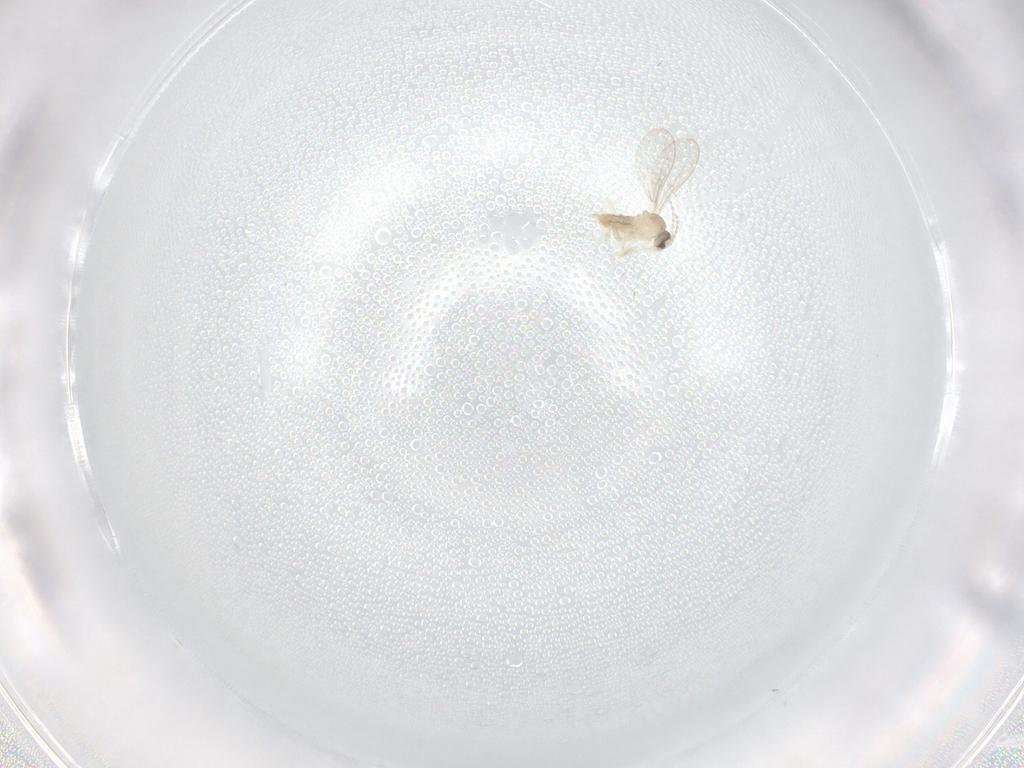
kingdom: Animalia
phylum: Arthropoda
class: Insecta
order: Diptera
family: Cecidomyiidae
